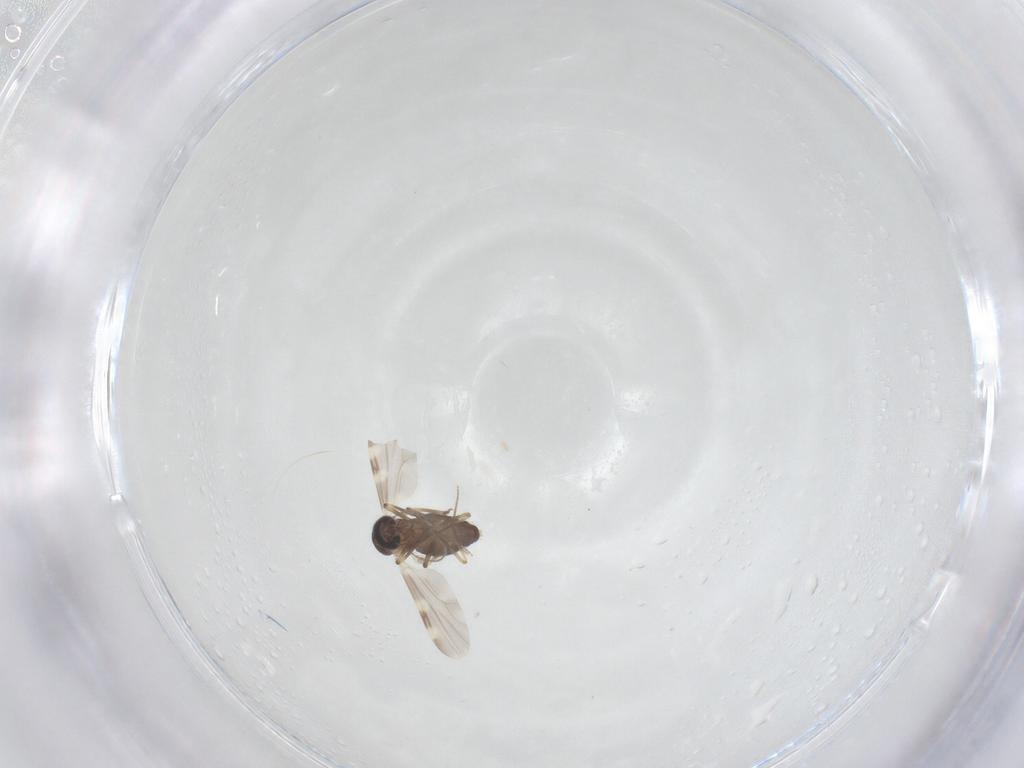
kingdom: Animalia
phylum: Arthropoda
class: Insecta
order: Diptera
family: Ceratopogonidae
